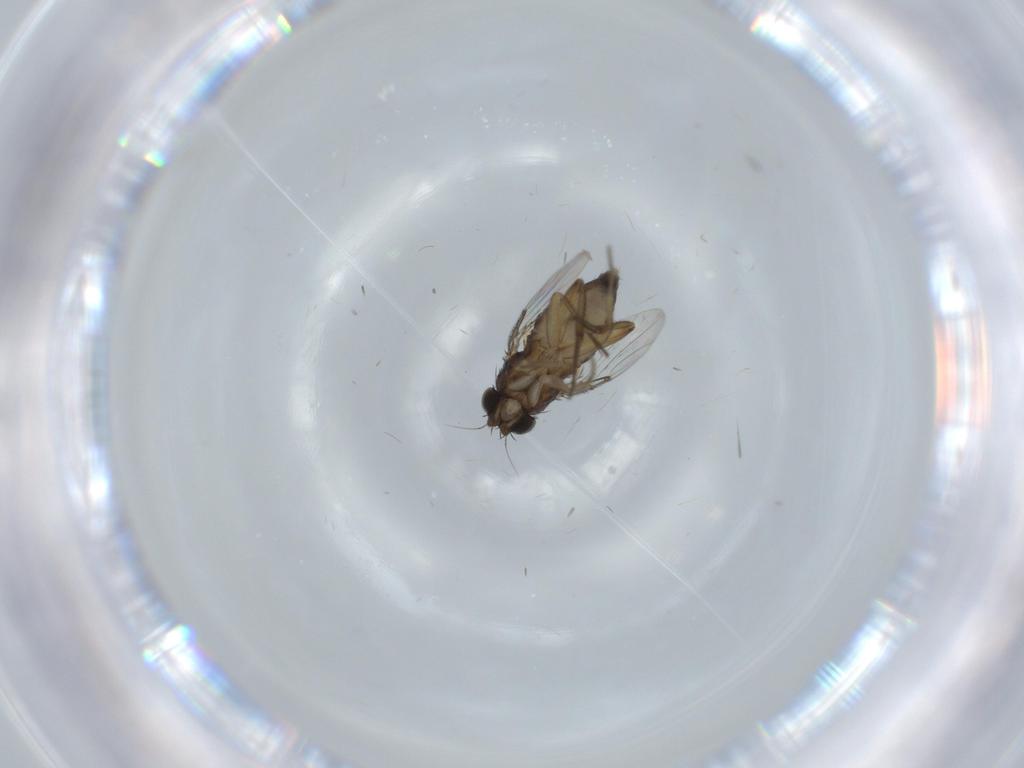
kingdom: Animalia
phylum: Arthropoda
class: Insecta
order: Diptera
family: Phoridae
